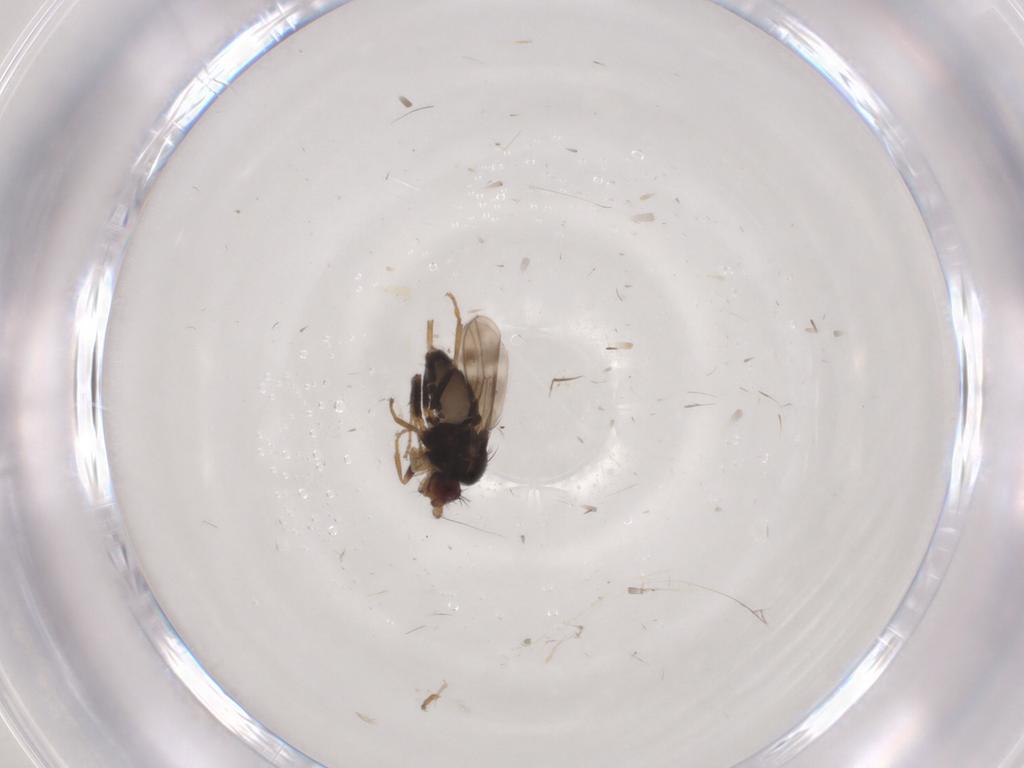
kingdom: Animalia
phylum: Arthropoda
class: Insecta
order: Diptera
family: Sphaeroceridae
